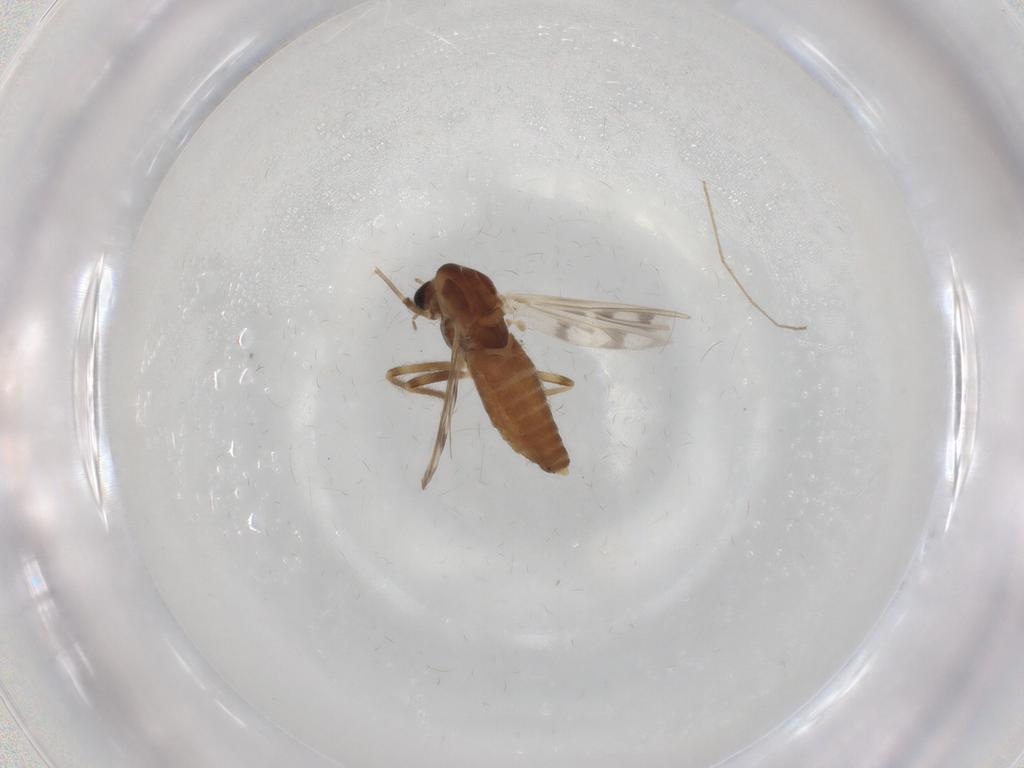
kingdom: Animalia
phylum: Arthropoda
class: Insecta
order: Diptera
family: Chironomidae
